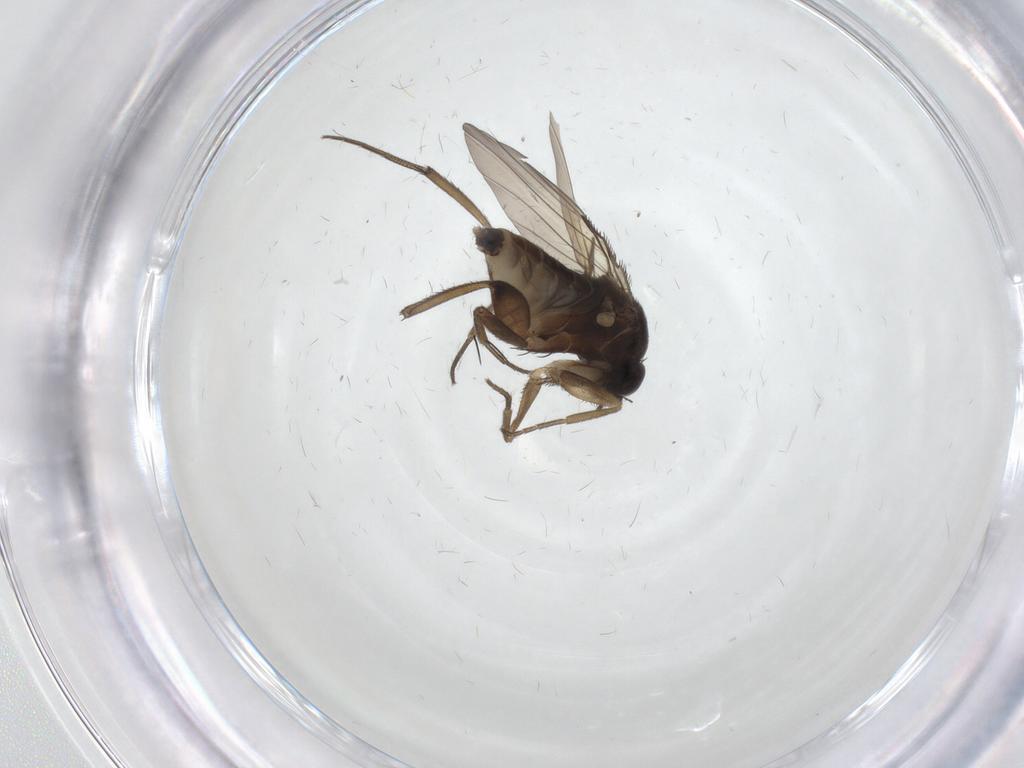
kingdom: Animalia
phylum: Arthropoda
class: Insecta
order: Diptera
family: Phoridae
